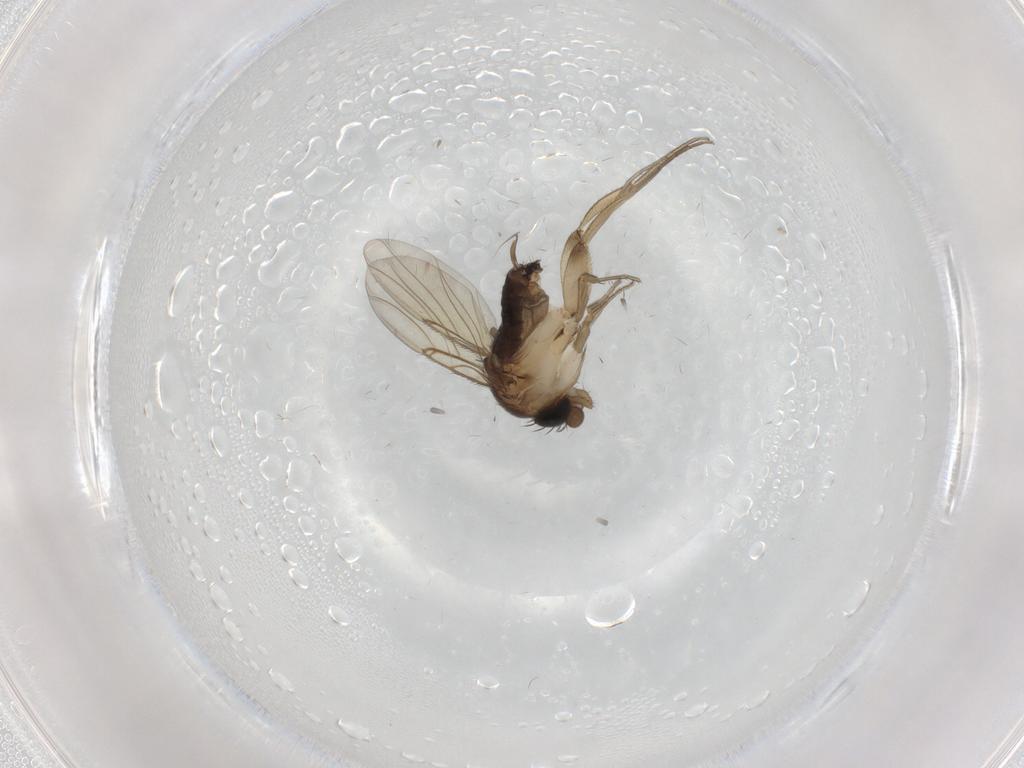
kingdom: Animalia
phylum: Arthropoda
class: Insecta
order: Diptera
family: Phoridae
